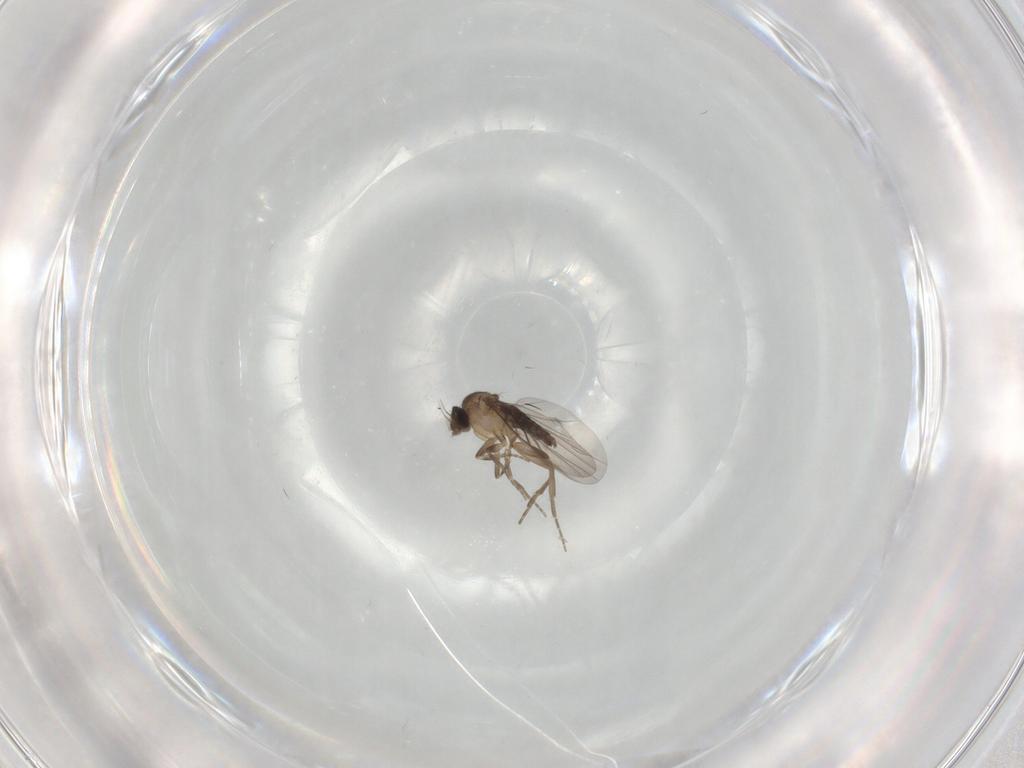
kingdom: Animalia
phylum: Arthropoda
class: Insecta
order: Diptera
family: Phoridae
